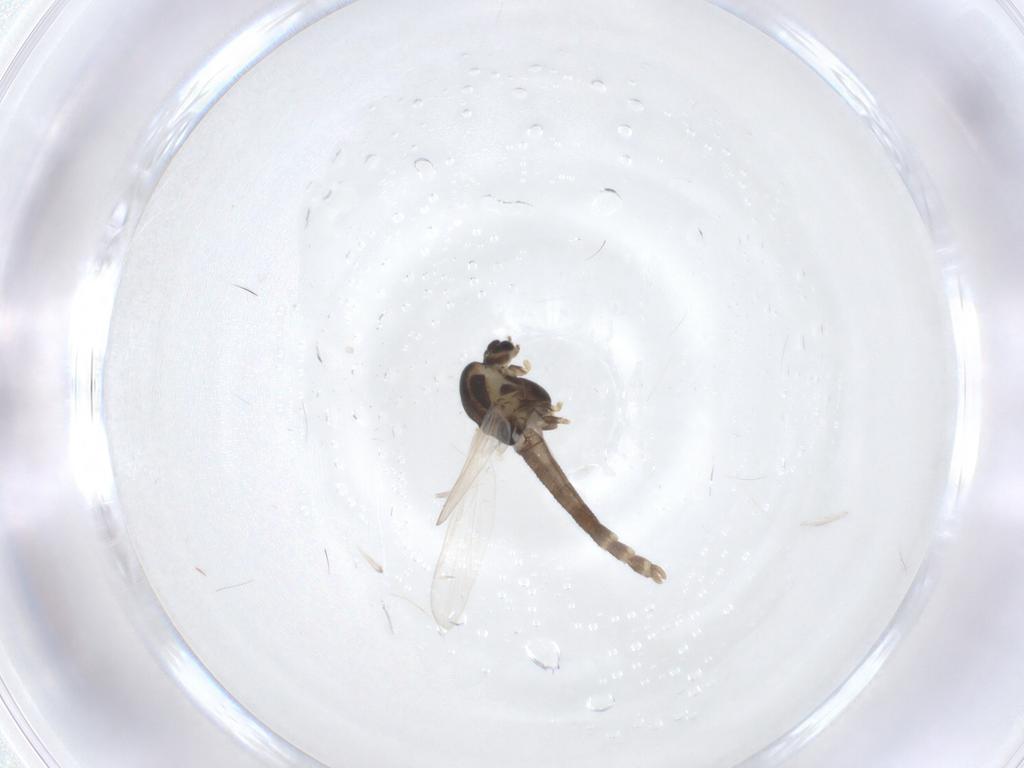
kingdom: Animalia
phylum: Arthropoda
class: Insecta
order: Diptera
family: Chironomidae
